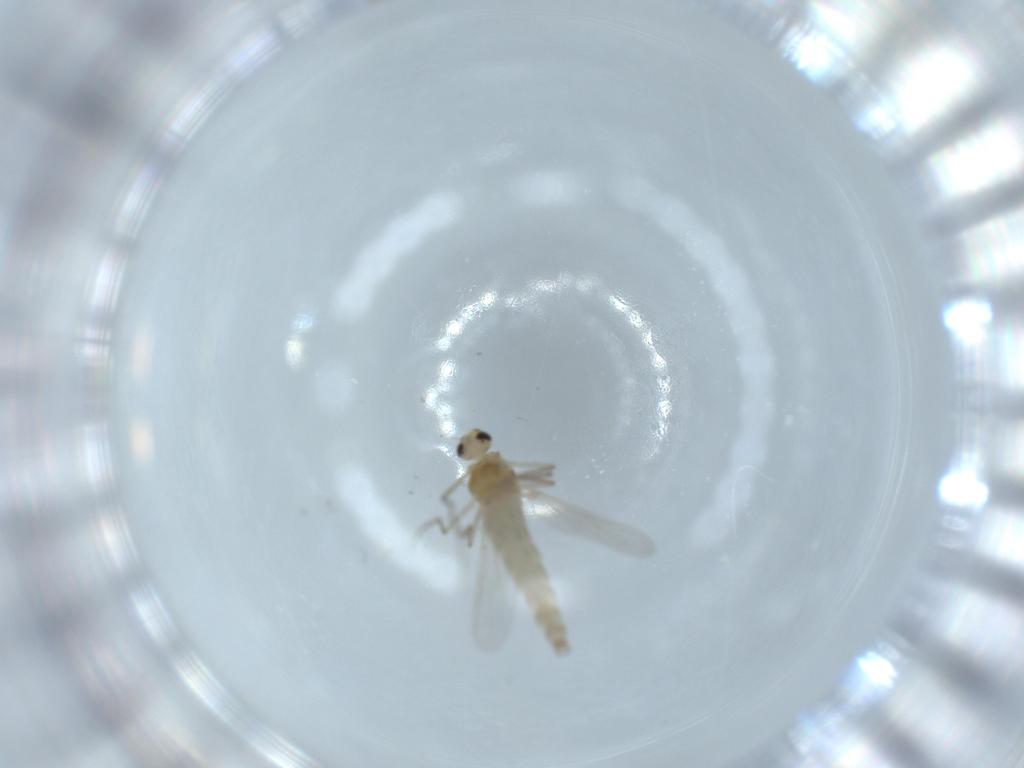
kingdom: Animalia
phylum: Arthropoda
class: Insecta
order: Diptera
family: Chironomidae
